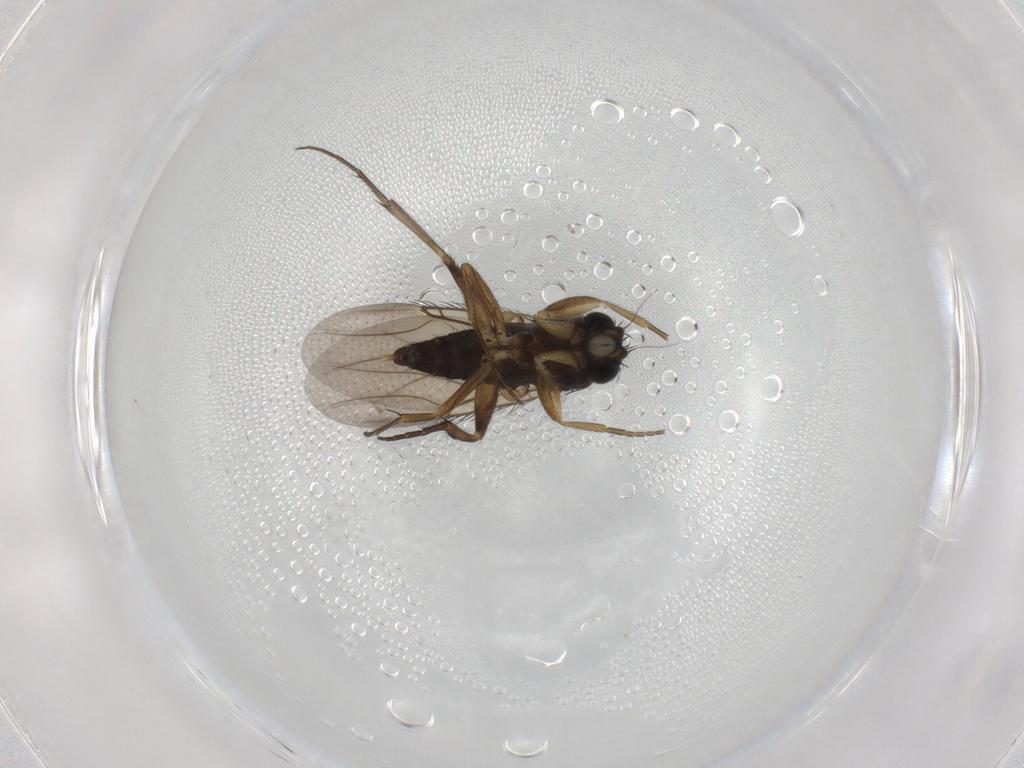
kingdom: Animalia
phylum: Arthropoda
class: Insecta
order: Diptera
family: Phoridae
